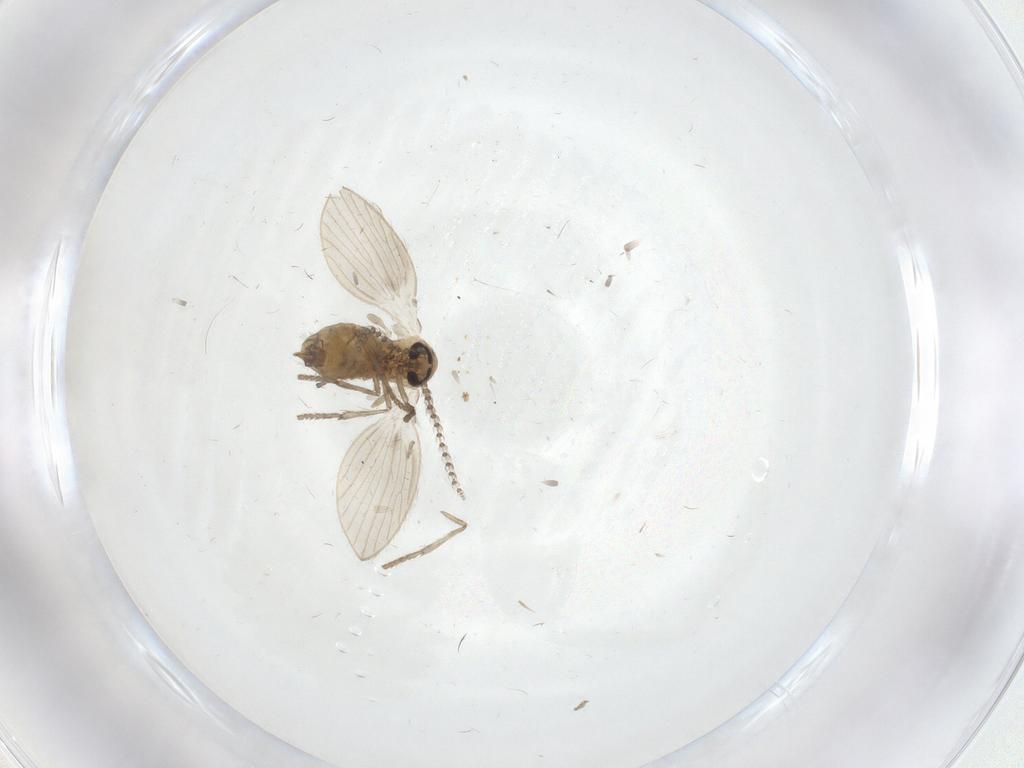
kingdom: Animalia
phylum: Arthropoda
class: Insecta
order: Diptera
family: Psychodidae
